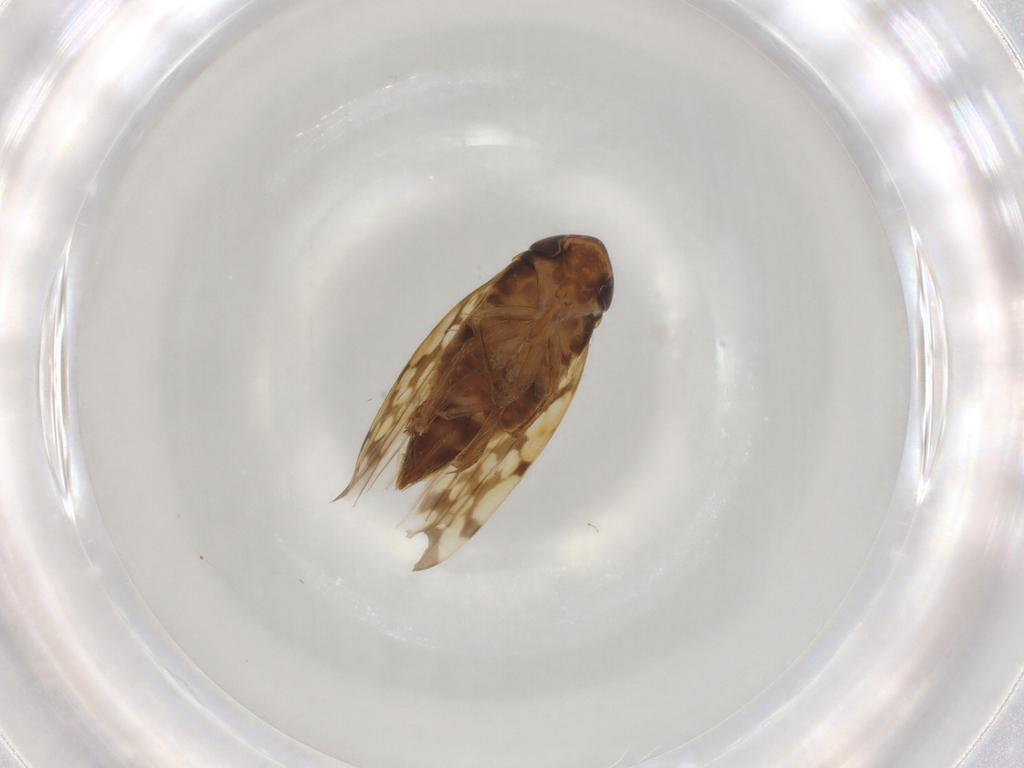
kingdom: Animalia
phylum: Arthropoda
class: Insecta
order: Hemiptera
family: Cicadellidae
